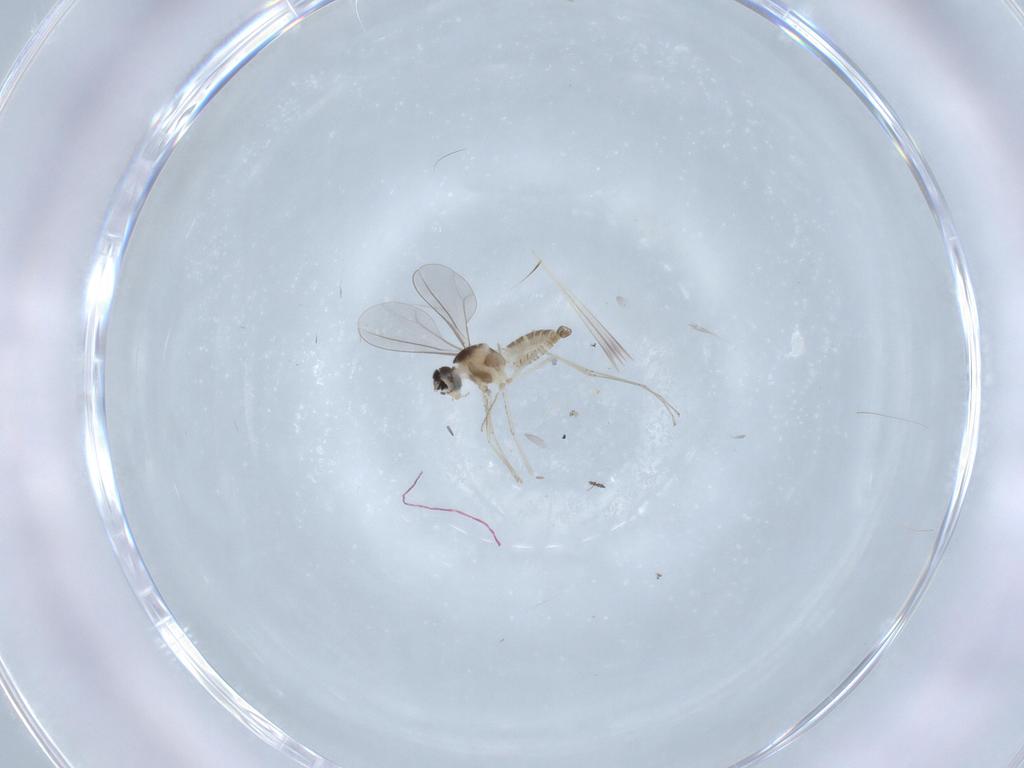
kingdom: Animalia
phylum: Arthropoda
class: Insecta
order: Diptera
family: Cecidomyiidae
